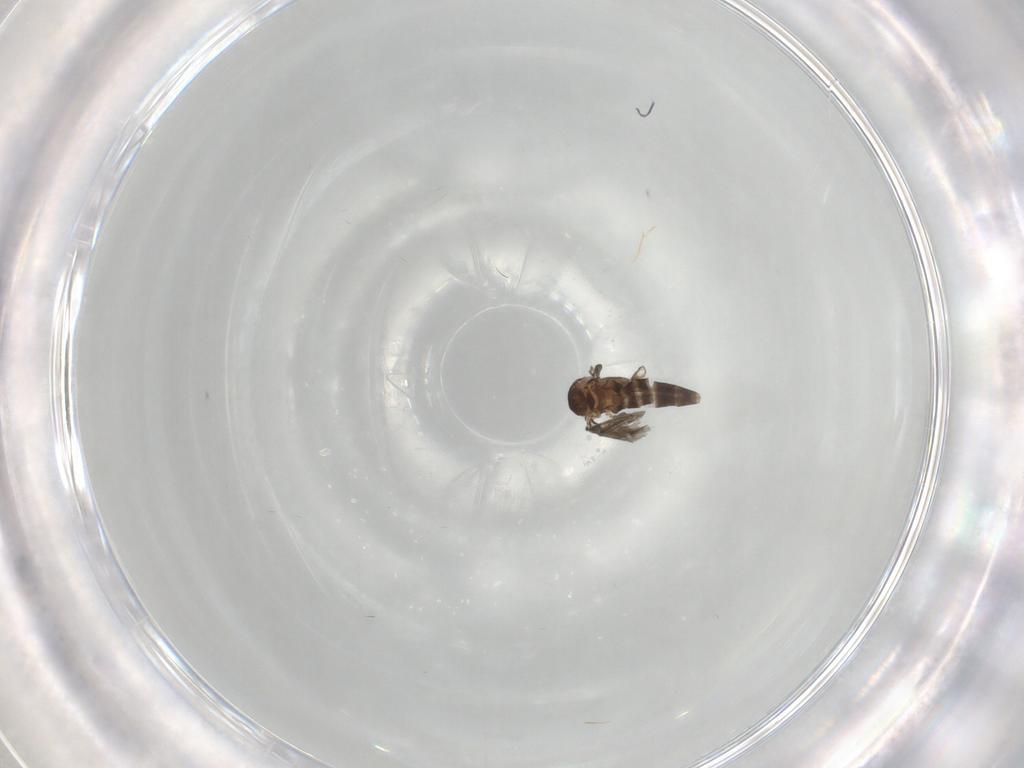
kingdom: Animalia
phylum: Arthropoda
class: Insecta
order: Diptera
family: Chironomidae
